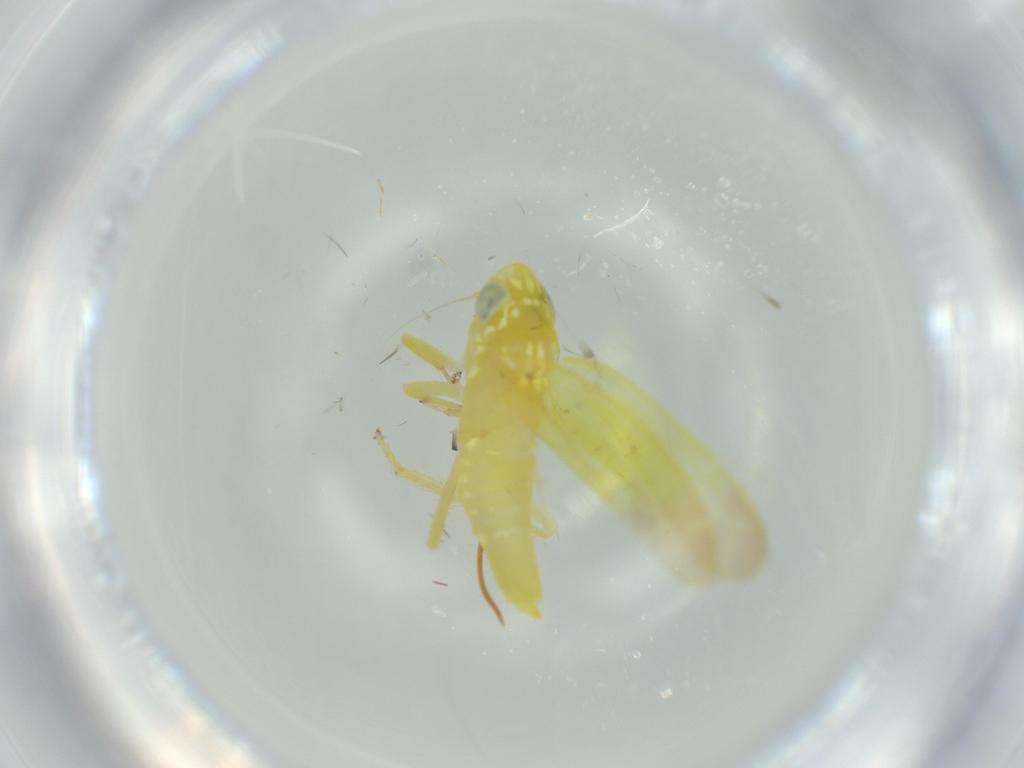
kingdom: Animalia
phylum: Arthropoda
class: Insecta
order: Hemiptera
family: Cicadellidae
